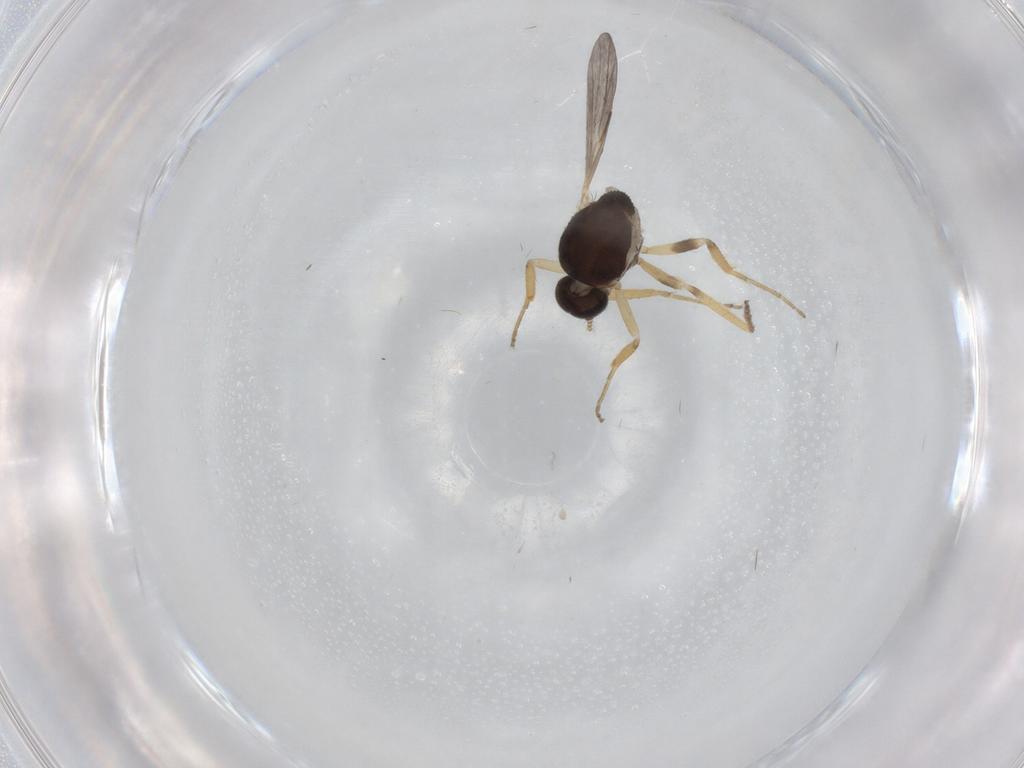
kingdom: Animalia
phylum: Arthropoda
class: Insecta
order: Diptera
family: Ceratopogonidae
